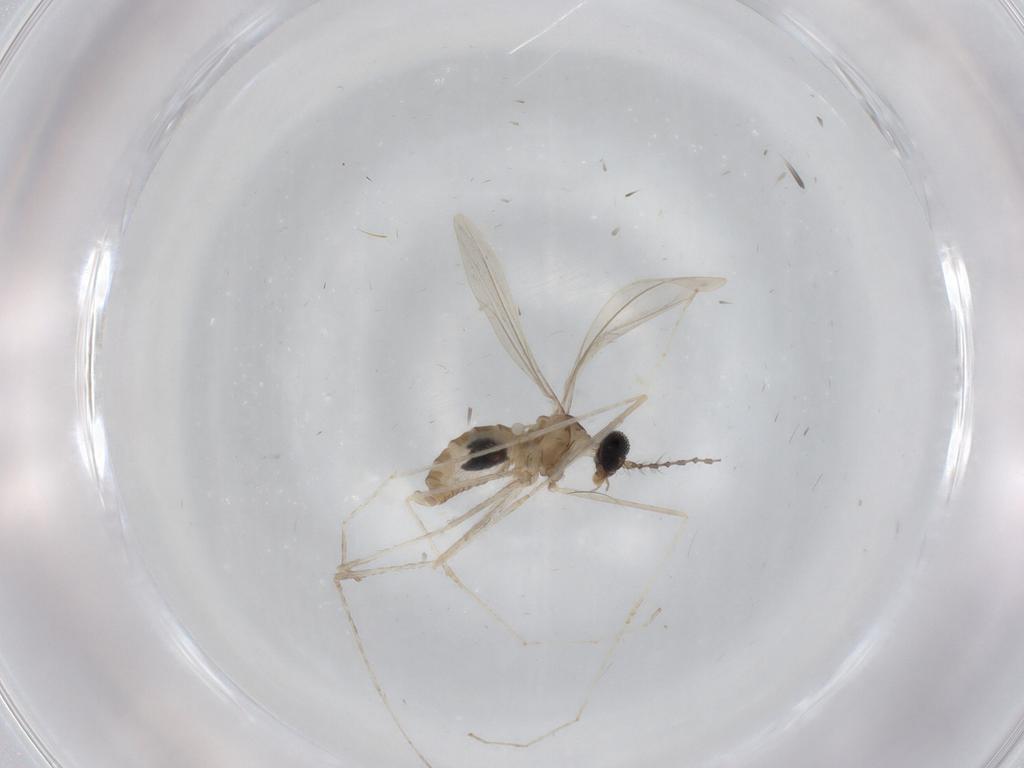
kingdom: Animalia
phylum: Arthropoda
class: Insecta
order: Diptera
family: Cecidomyiidae
